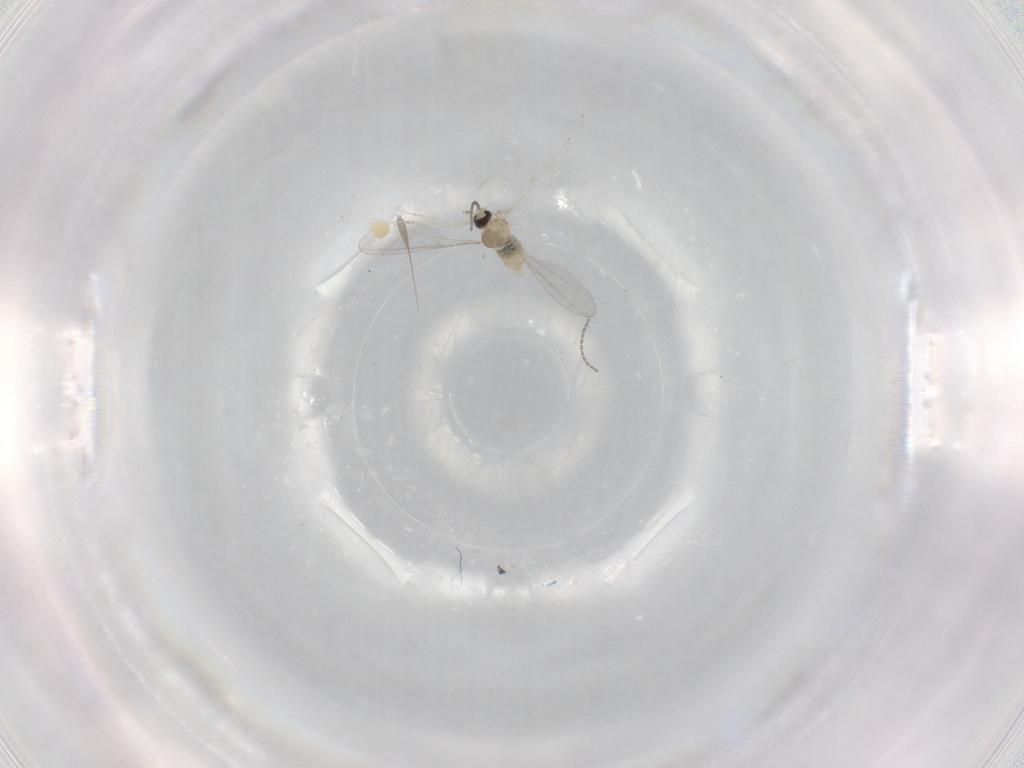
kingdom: Animalia
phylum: Arthropoda
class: Insecta
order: Diptera
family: Cecidomyiidae
